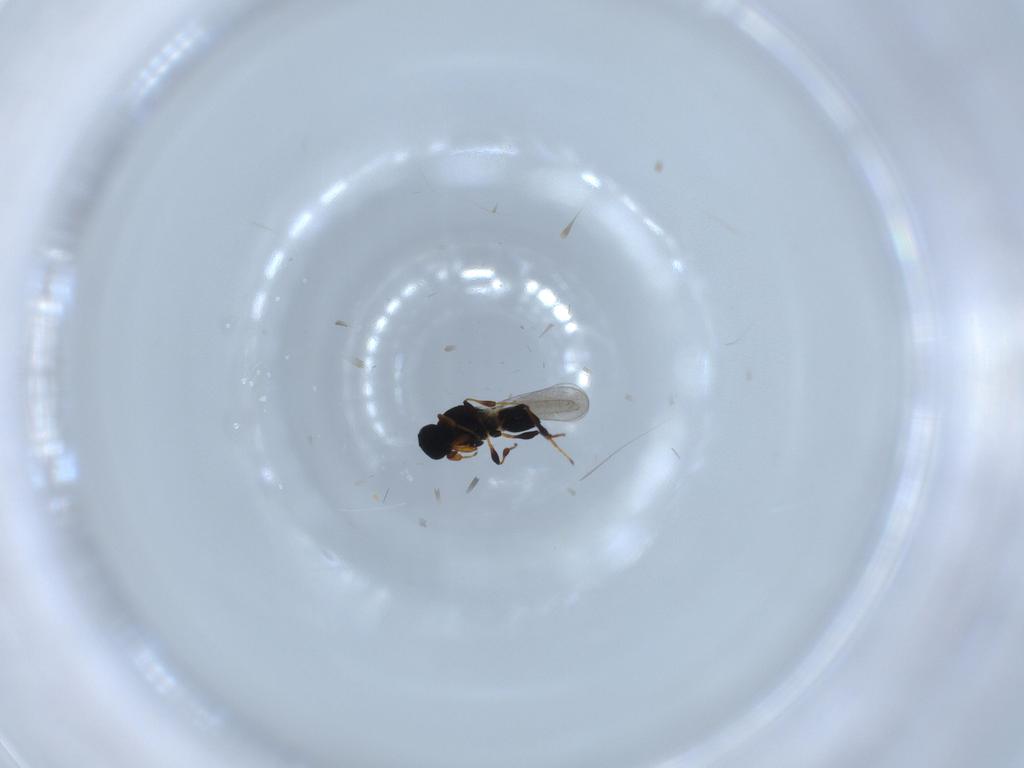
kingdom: Animalia
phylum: Arthropoda
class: Insecta
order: Hymenoptera
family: Platygastridae
